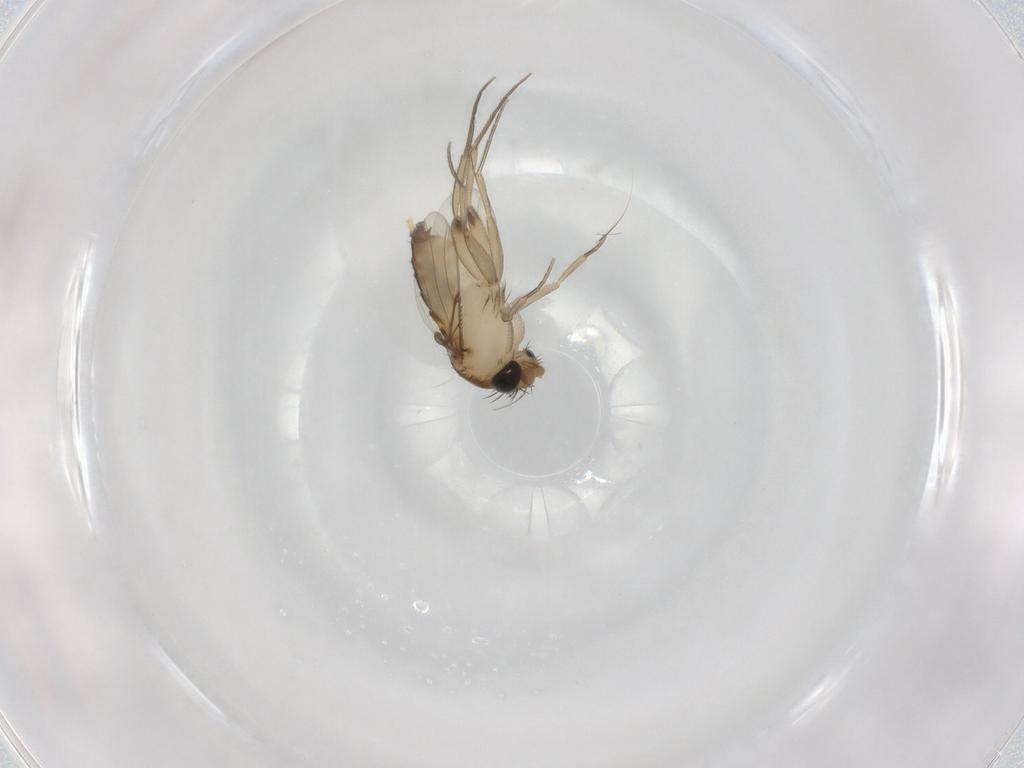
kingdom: Animalia
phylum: Arthropoda
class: Insecta
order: Diptera
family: Phoridae
